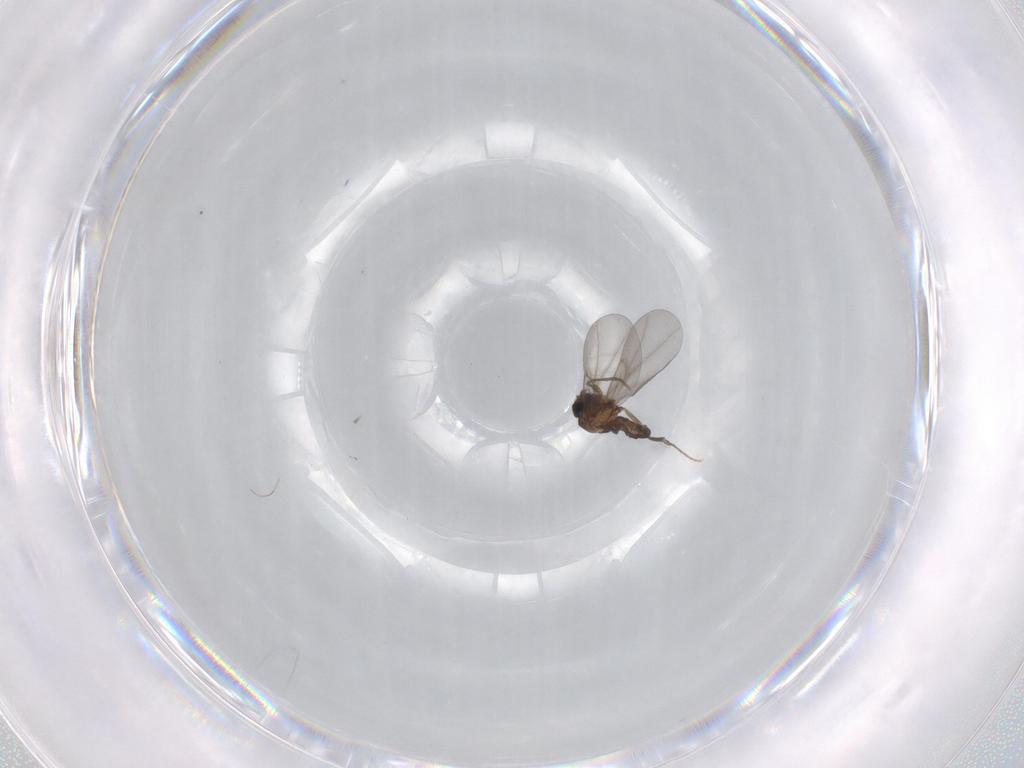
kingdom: Animalia
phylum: Arthropoda
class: Insecta
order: Diptera
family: Phoridae
